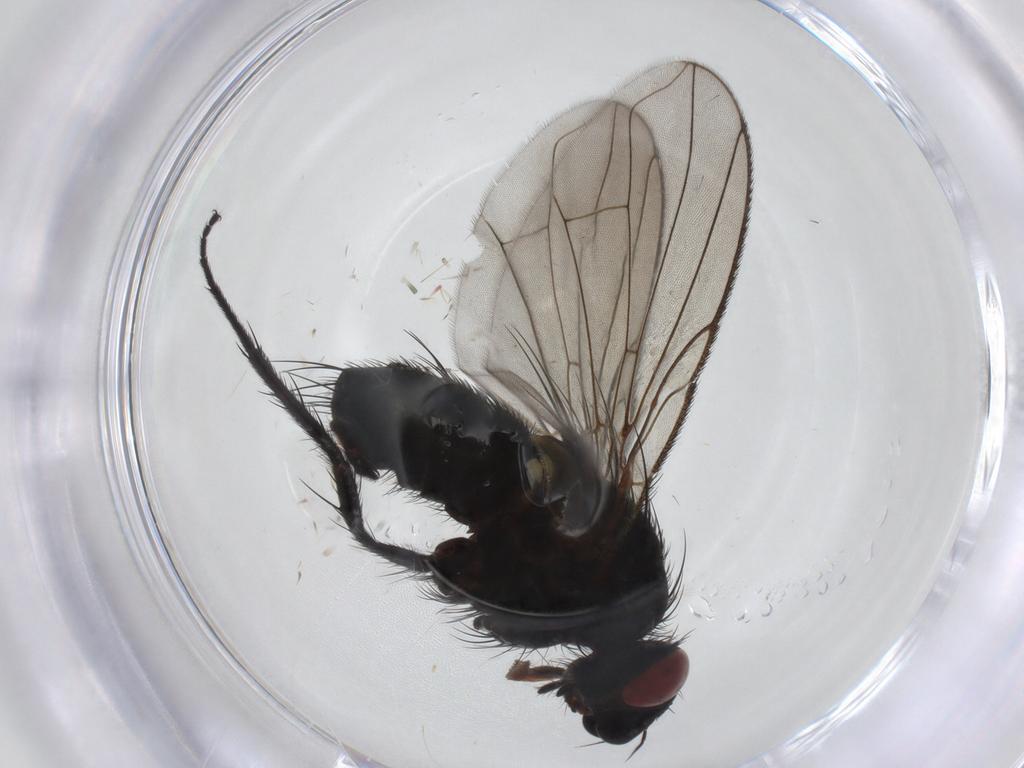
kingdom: Animalia
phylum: Arthropoda
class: Insecta
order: Diptera
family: Tachinidae
